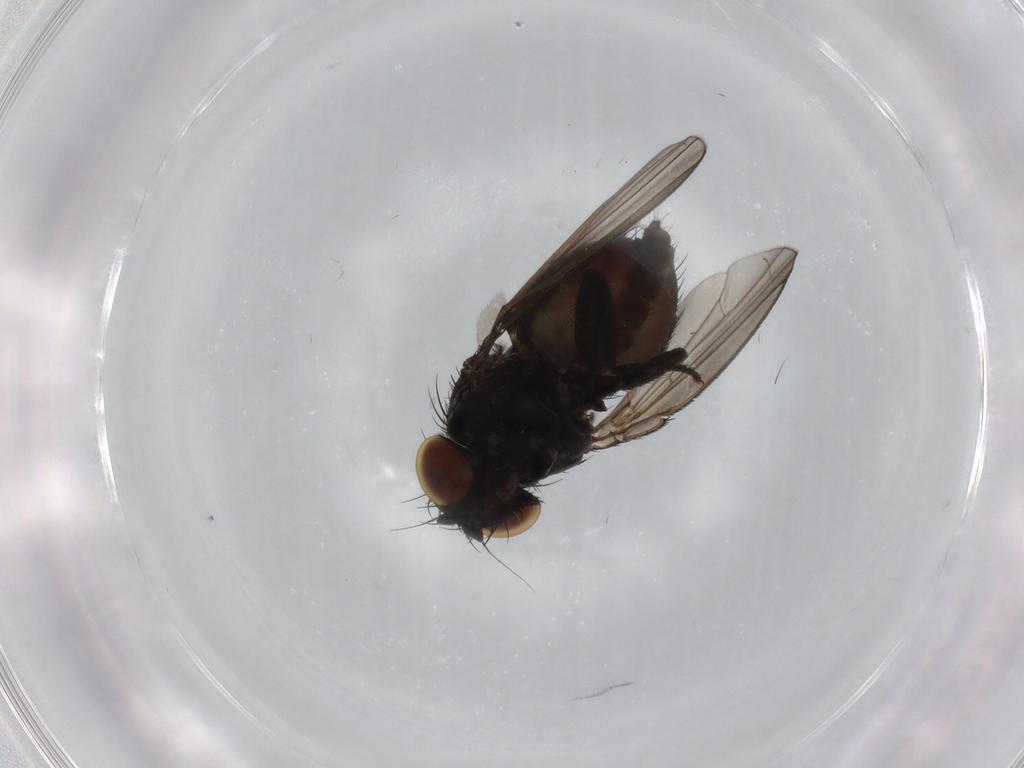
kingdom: Animalia
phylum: Arthropoda
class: Insecta
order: Diptera
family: Milichiidae
